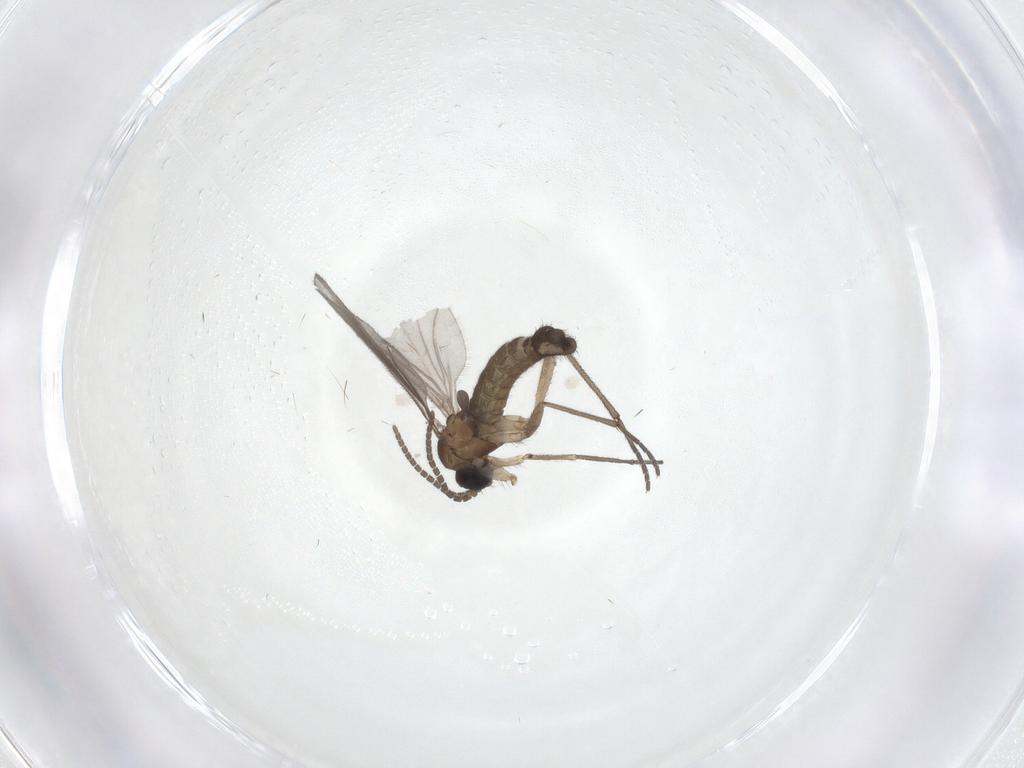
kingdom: Animalia
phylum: Arthropoda
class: Insecta
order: Diptera
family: Sciaridae
